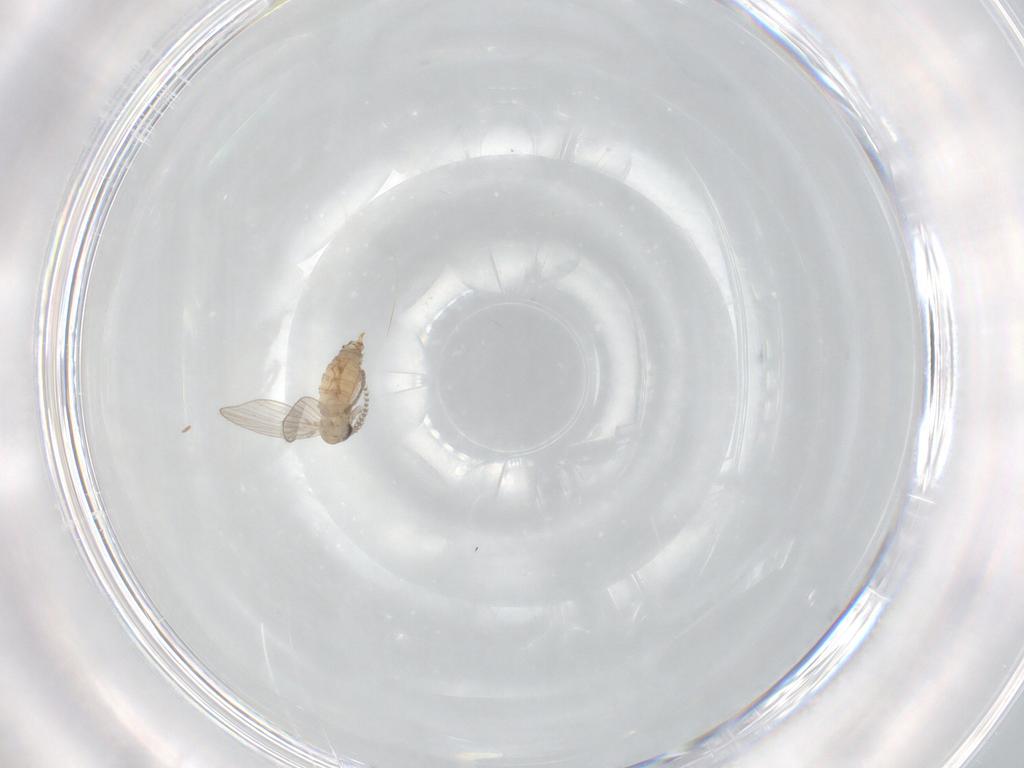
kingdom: Animalia
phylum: Arthropoda
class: Insecta
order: Diptera
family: Psychodidae
